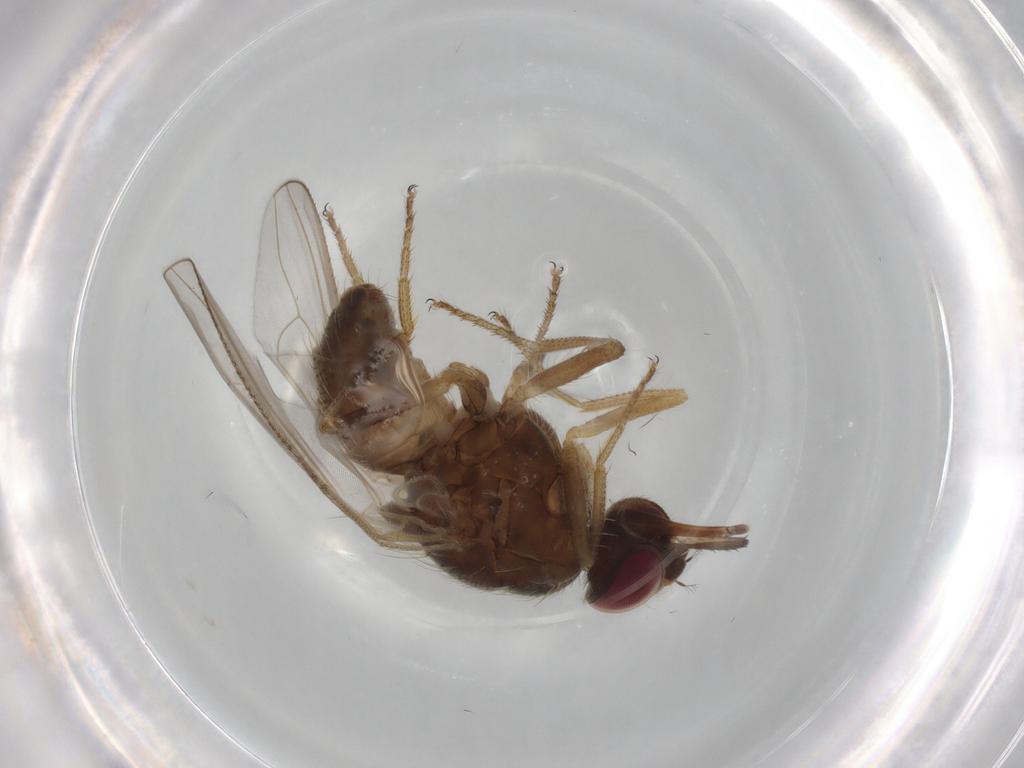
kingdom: Animalia
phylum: Arthropoda
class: Insecta
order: Diptera
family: Muscidae
